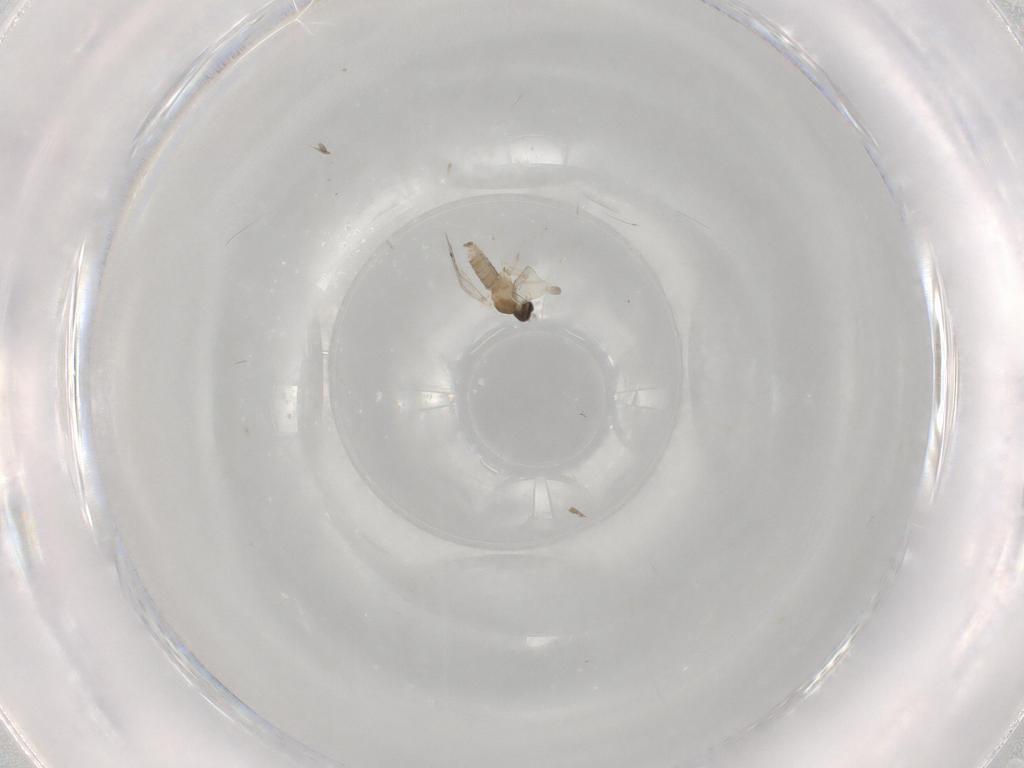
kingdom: Animalia
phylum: Arthropoda
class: Insecta
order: Diptera
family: Cecidomyiidae
